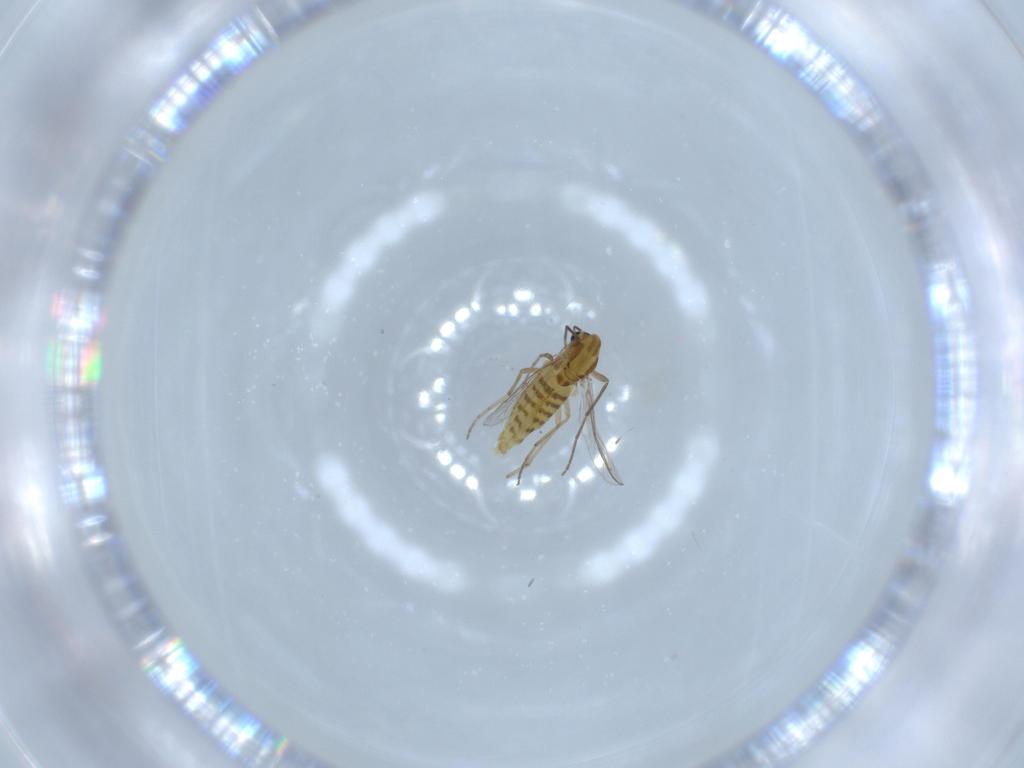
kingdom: Animalia
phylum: Arthropoda
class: Insecta
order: Diptera
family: Chironomidae
